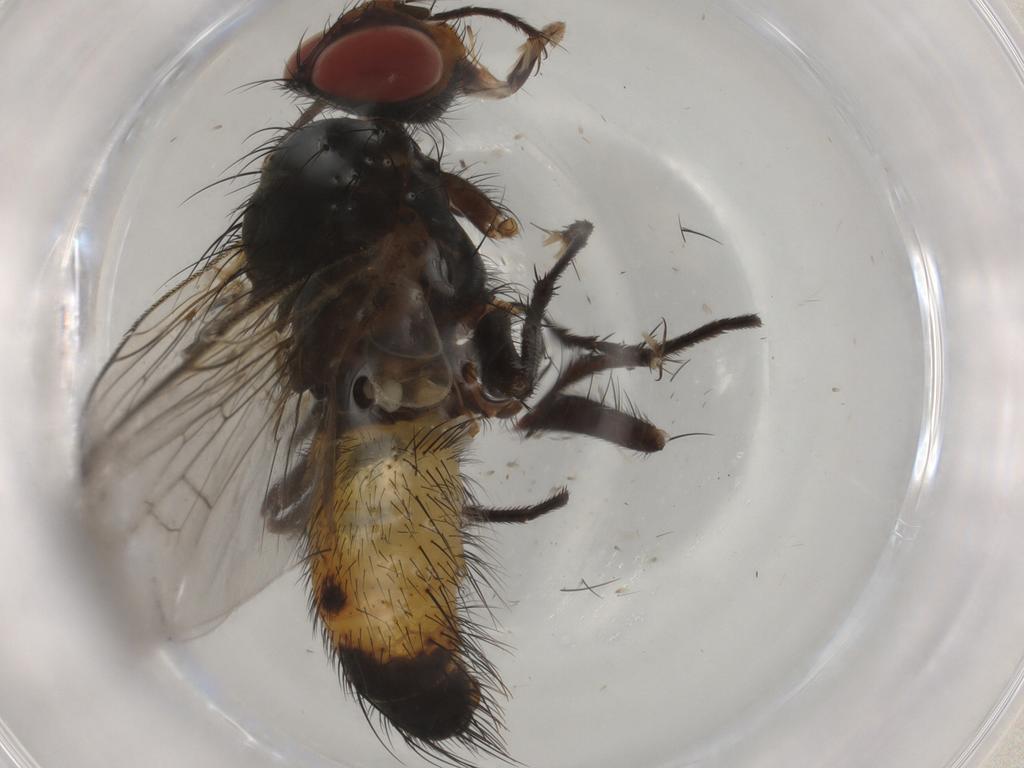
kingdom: Animalia
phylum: Arthropoda
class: Insecta
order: Diptera
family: Tachinidae
